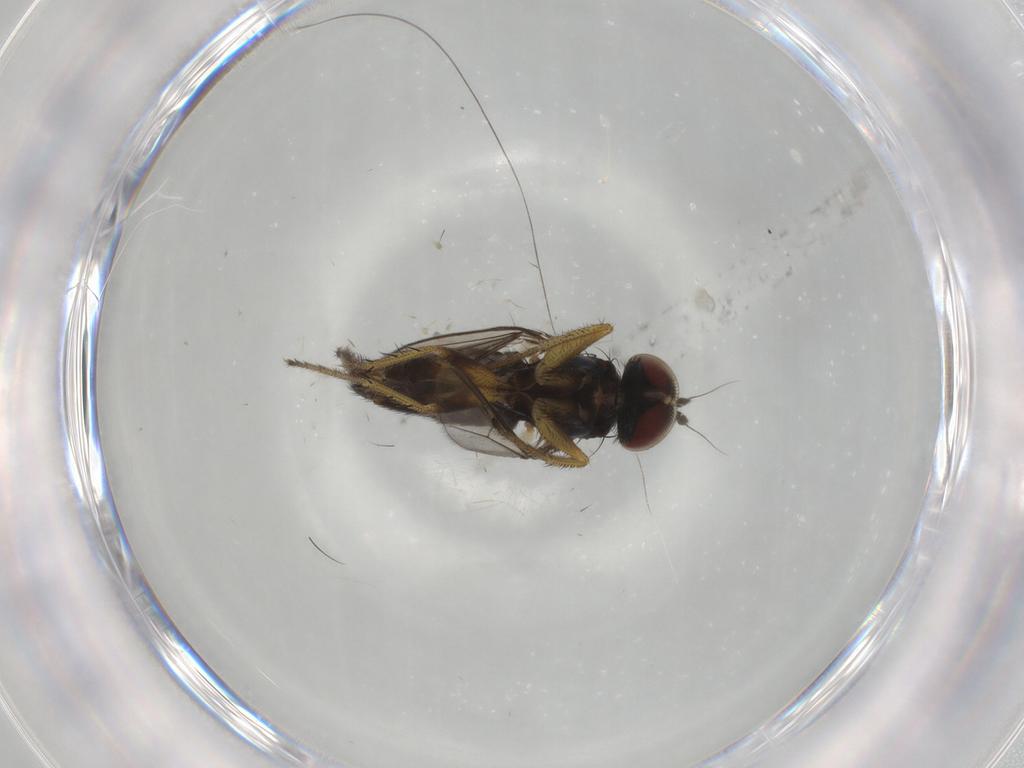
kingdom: Animalia
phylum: Arthropoda
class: Insecta
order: Diptera
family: Dolichopodidae
